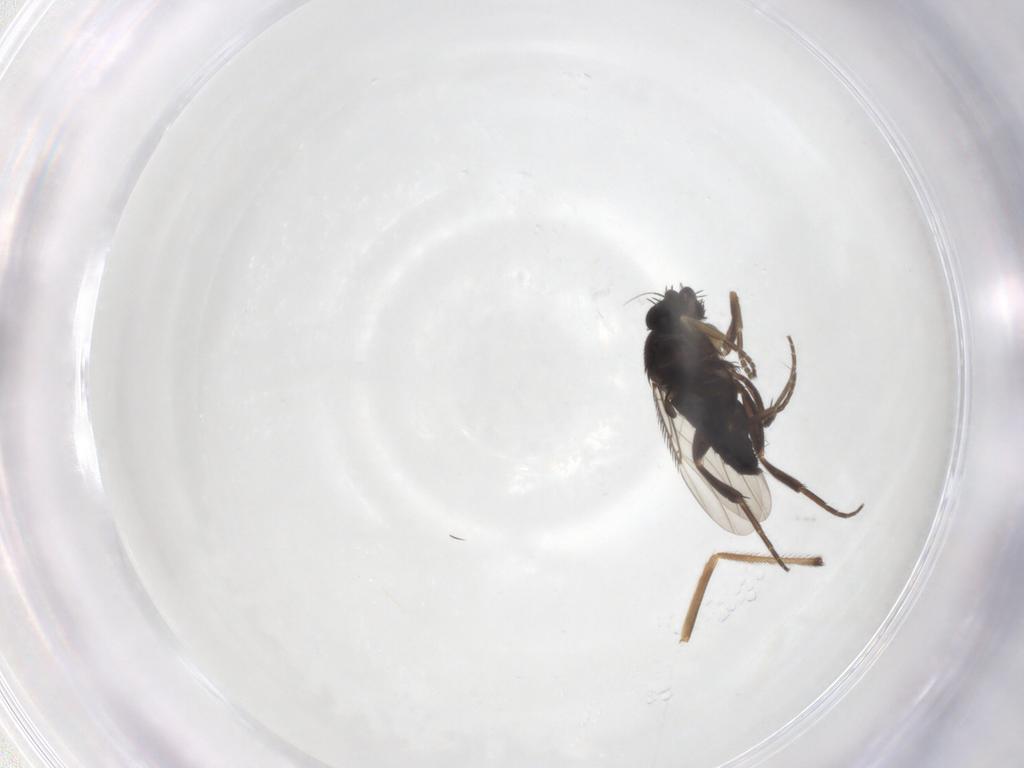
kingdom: Animalia
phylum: Arthropoda
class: Insecta
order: Diptera
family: Phoridae
